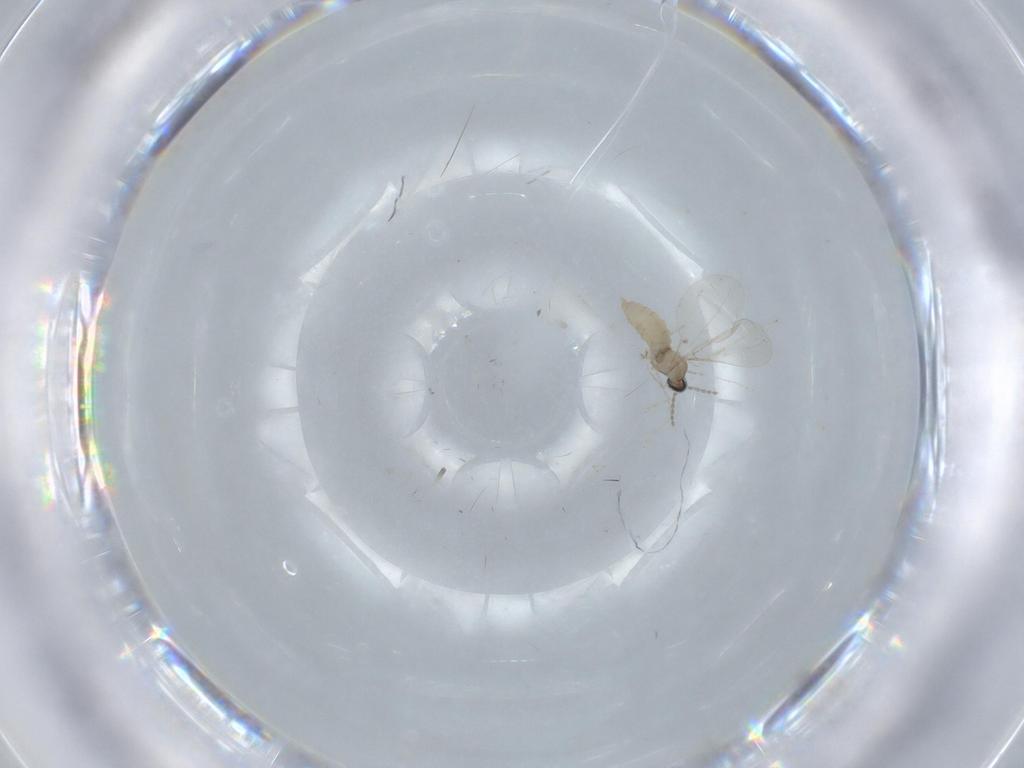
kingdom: Animalia
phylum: Arthropoda
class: Insecta
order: Diptera
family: Cecidomyiidae
